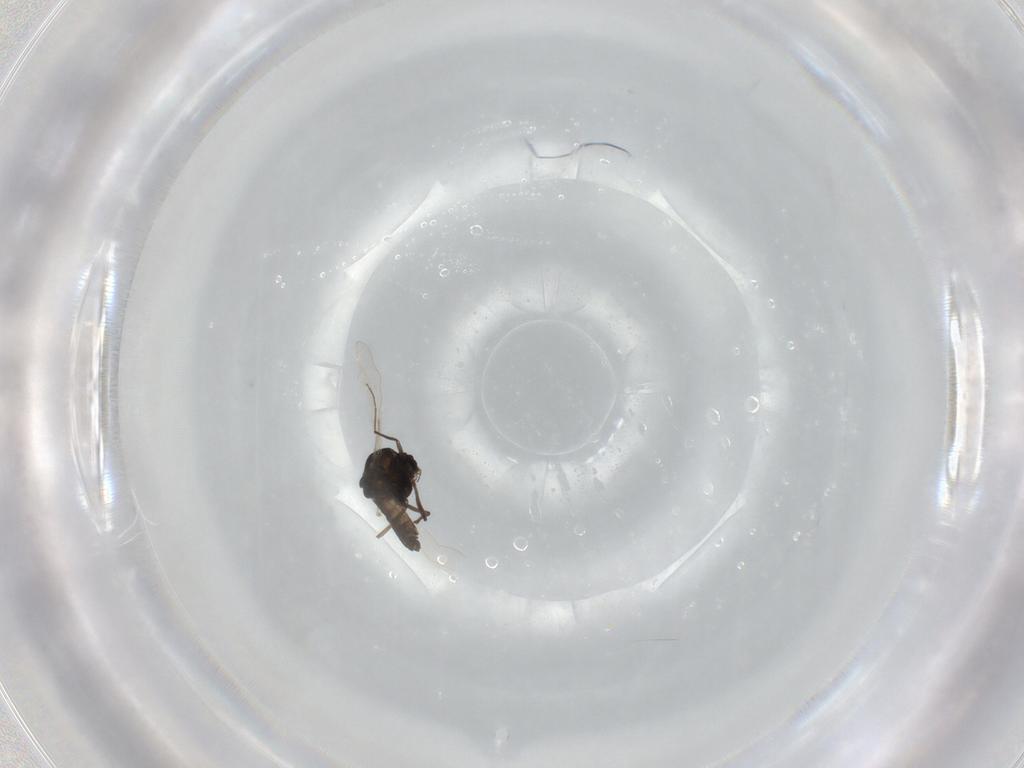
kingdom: Animalia
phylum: Arthropoda
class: Insecta
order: Diptera
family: Chironomidae
